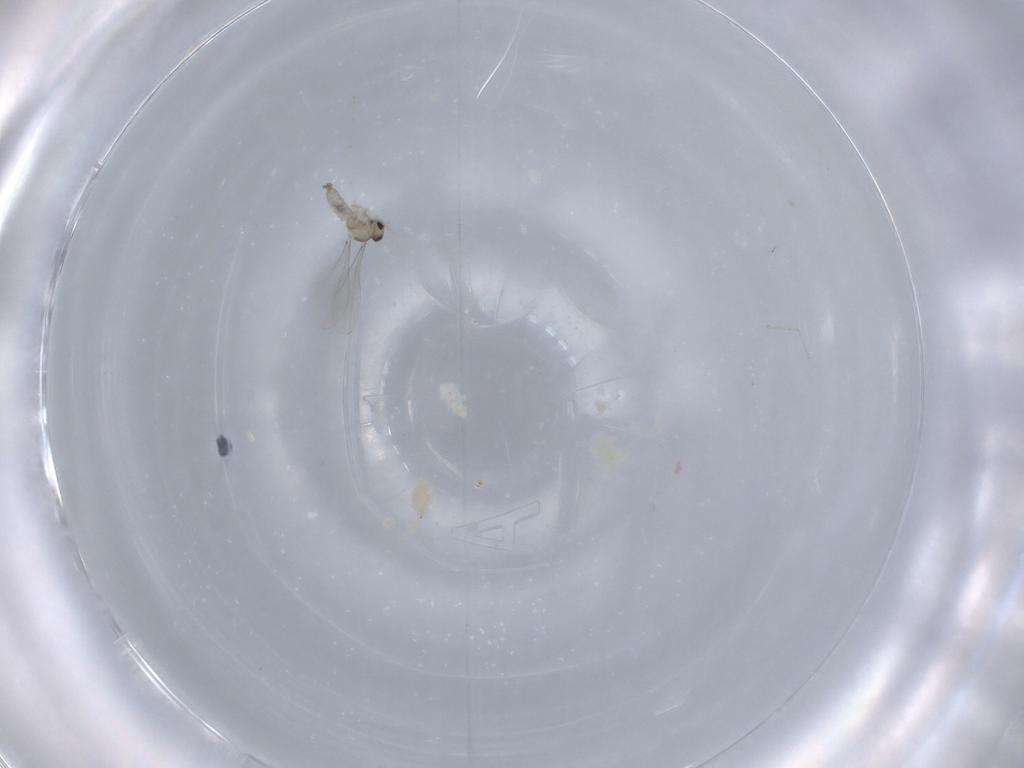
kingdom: Animalia
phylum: Arthropoda
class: Insecta
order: Diptera
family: Cecidomyiidae
